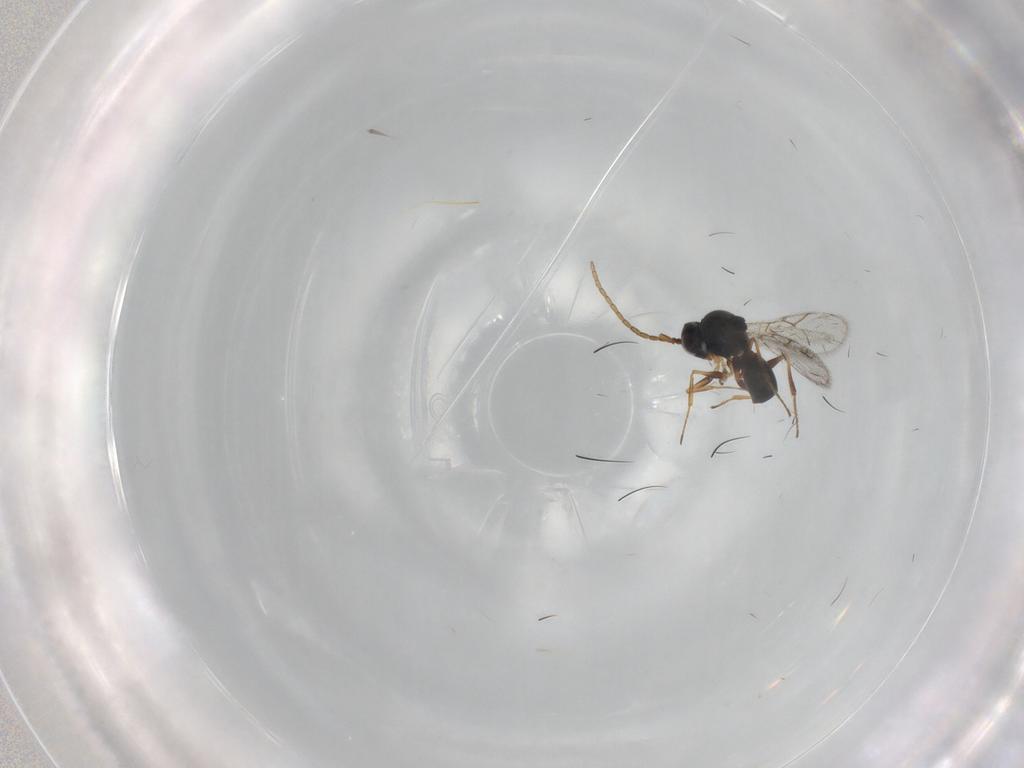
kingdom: Animalia
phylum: Arthropoda
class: Insecta
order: Hymenoptera
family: Figitidae
